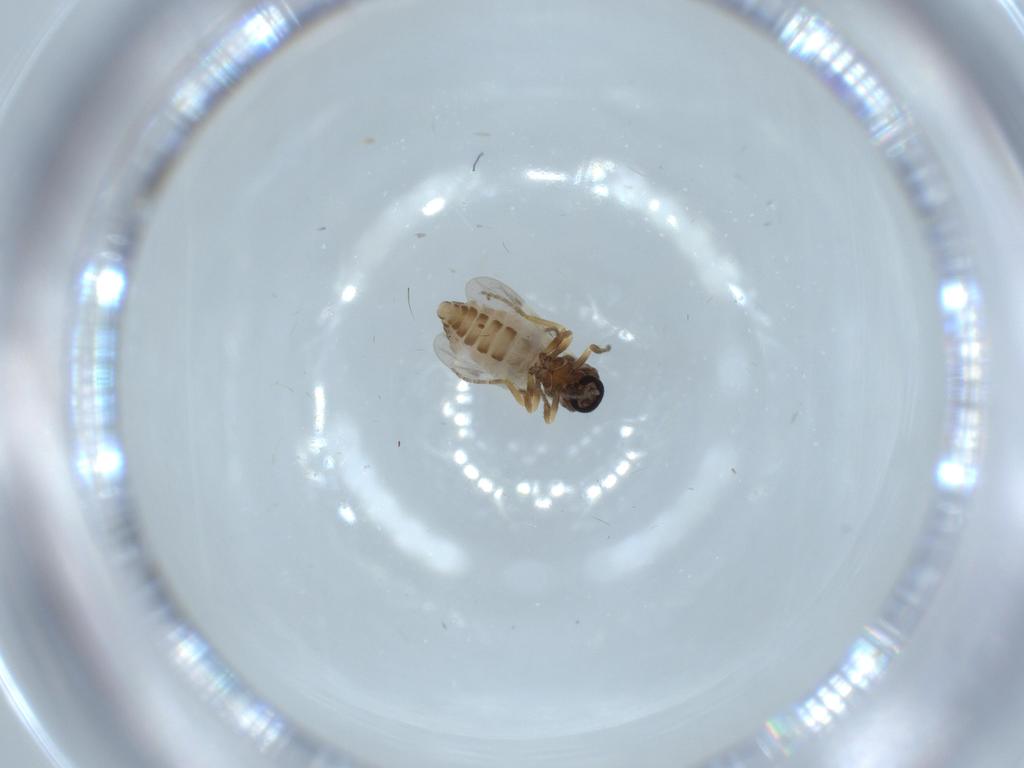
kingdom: Animalia
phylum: Arthropoda
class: Insecta
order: Diptera
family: Ceratopogonidae
